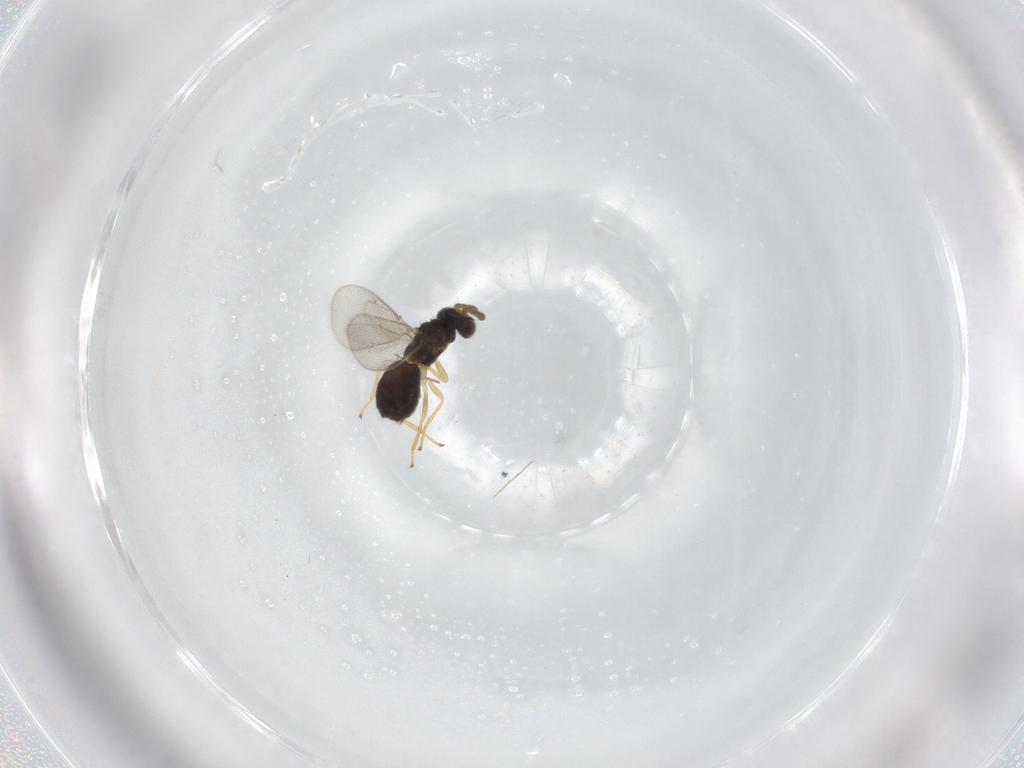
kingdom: Animalia
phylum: Arthropoda
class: Insecta
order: Hymenoptera
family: Eulophidae
